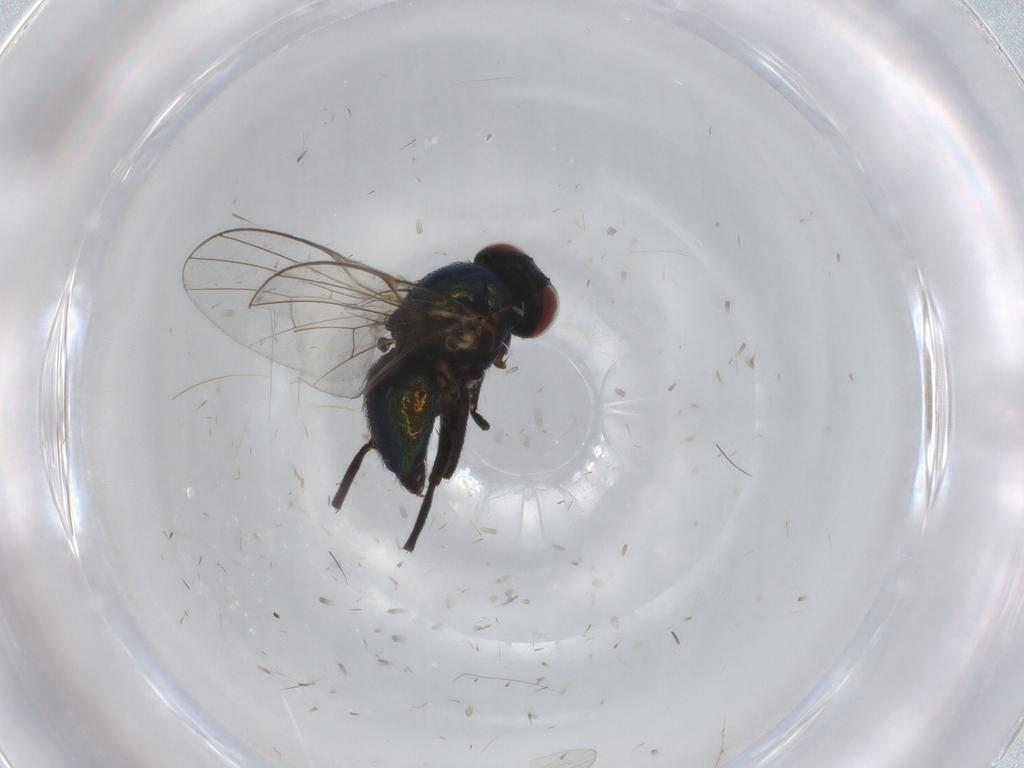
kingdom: Animalia
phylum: Arthropoda
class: Insecta
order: Diptera
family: Agromyzidae
